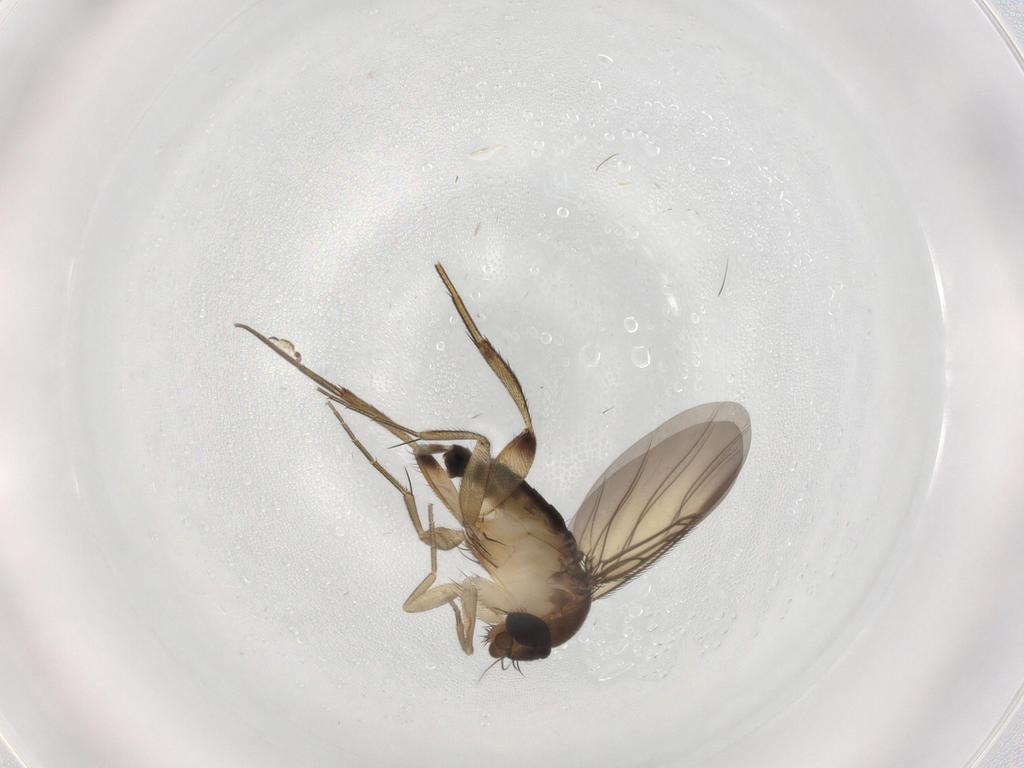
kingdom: Animalia
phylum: Arthropoda
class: Insecta
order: Diptera
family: Phoridae
